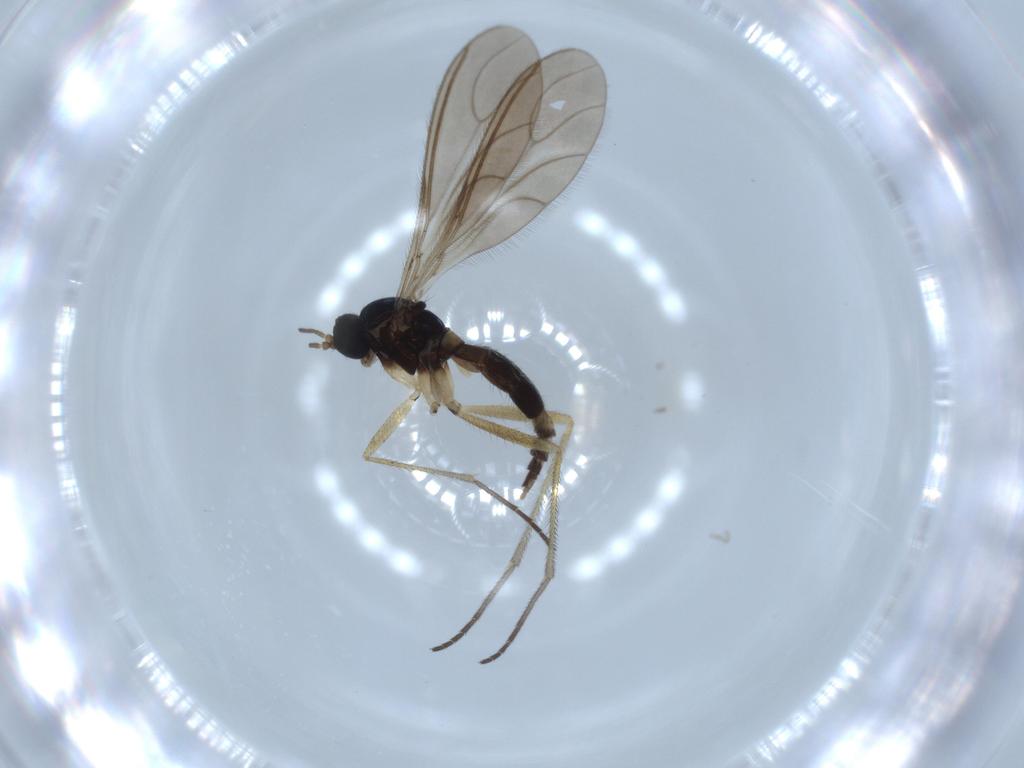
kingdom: Animalia
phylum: Arthropoda
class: Insecta
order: Diptera
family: Sciaridae
